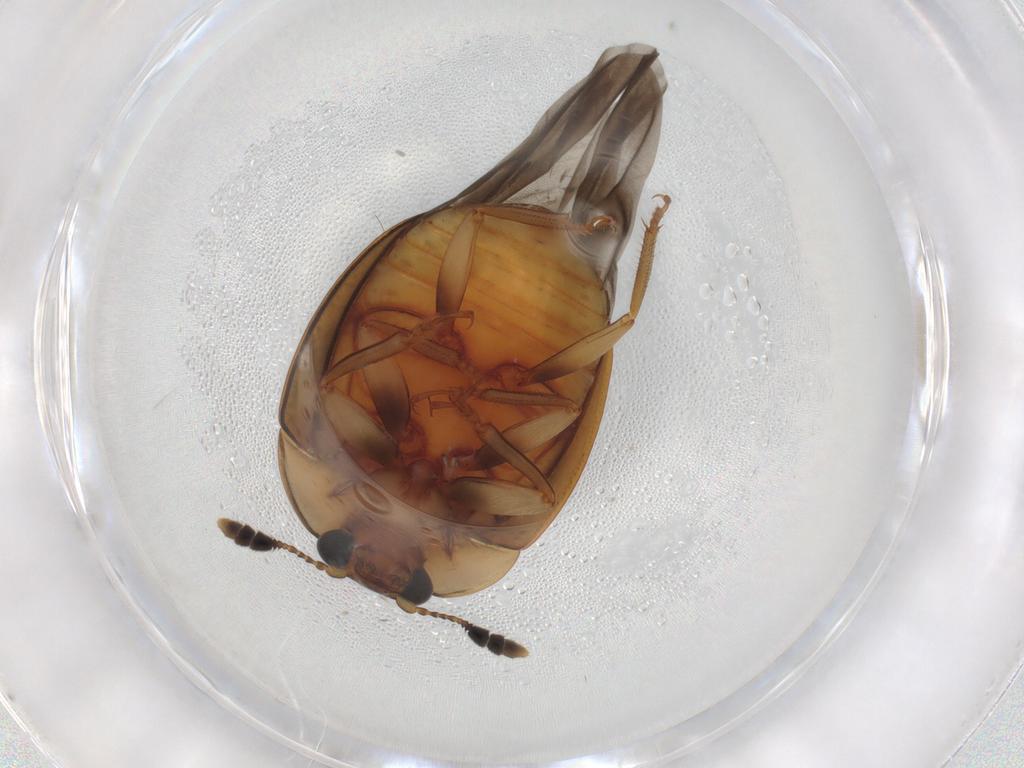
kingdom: Animalia
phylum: Arthropoda
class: Insecta
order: Coleoptera
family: Nitidulidae
